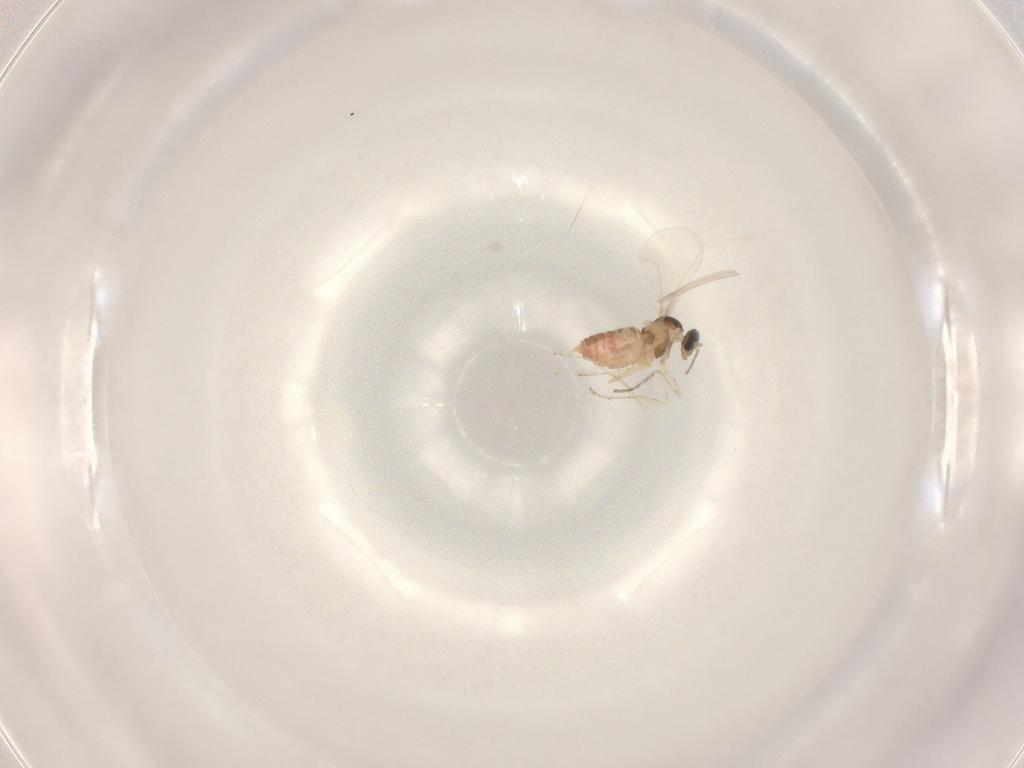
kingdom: Animalia
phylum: Arthropoda
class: Insecta
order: Diptera
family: Cecidomyiidae
